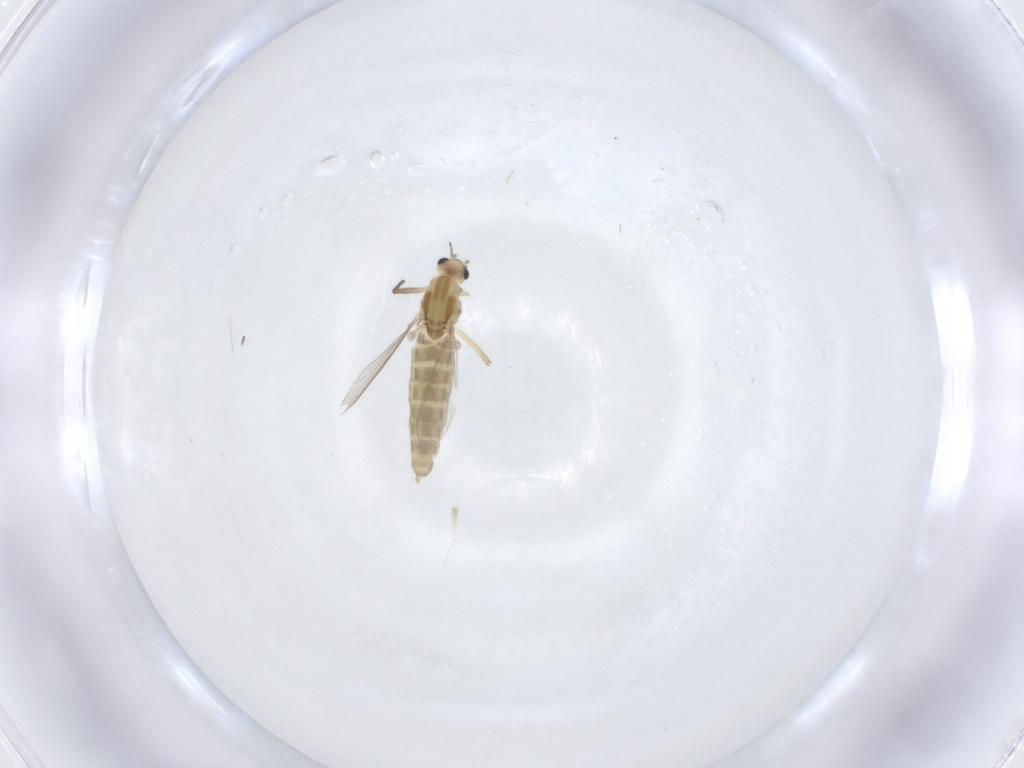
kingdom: Animalia
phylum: Arthropoda
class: Insecta
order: Diptera
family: Chironomidae
